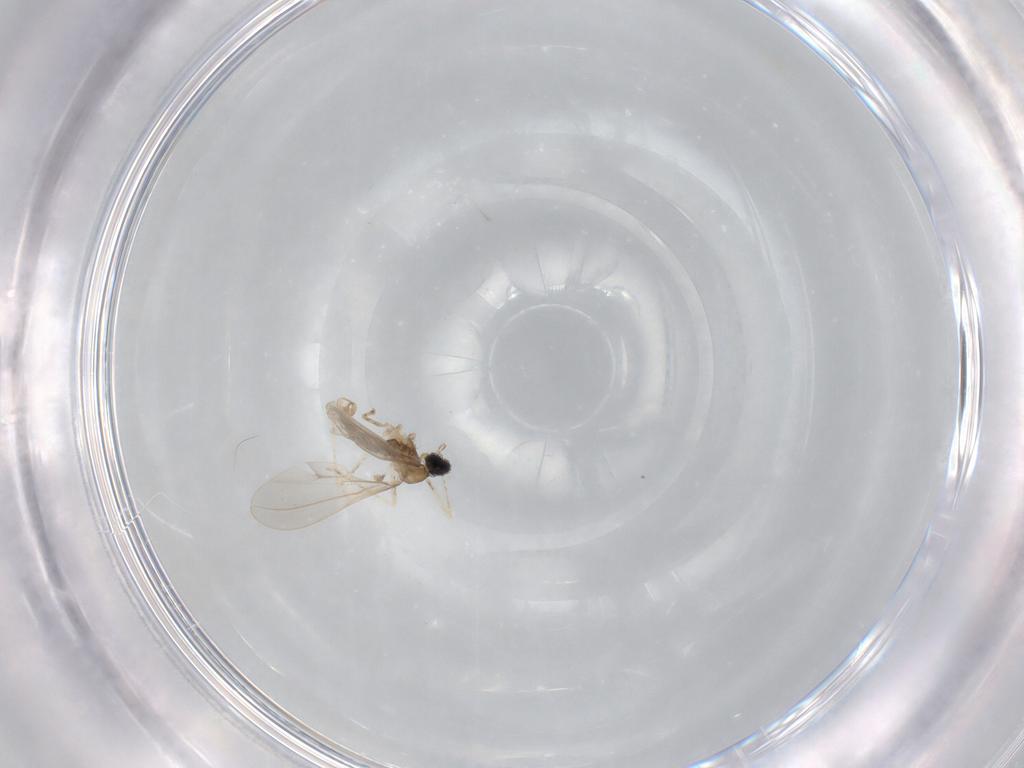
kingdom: Animalia
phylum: Arthropoda
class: Insecta
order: Diptera
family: Cecidomyiidae
